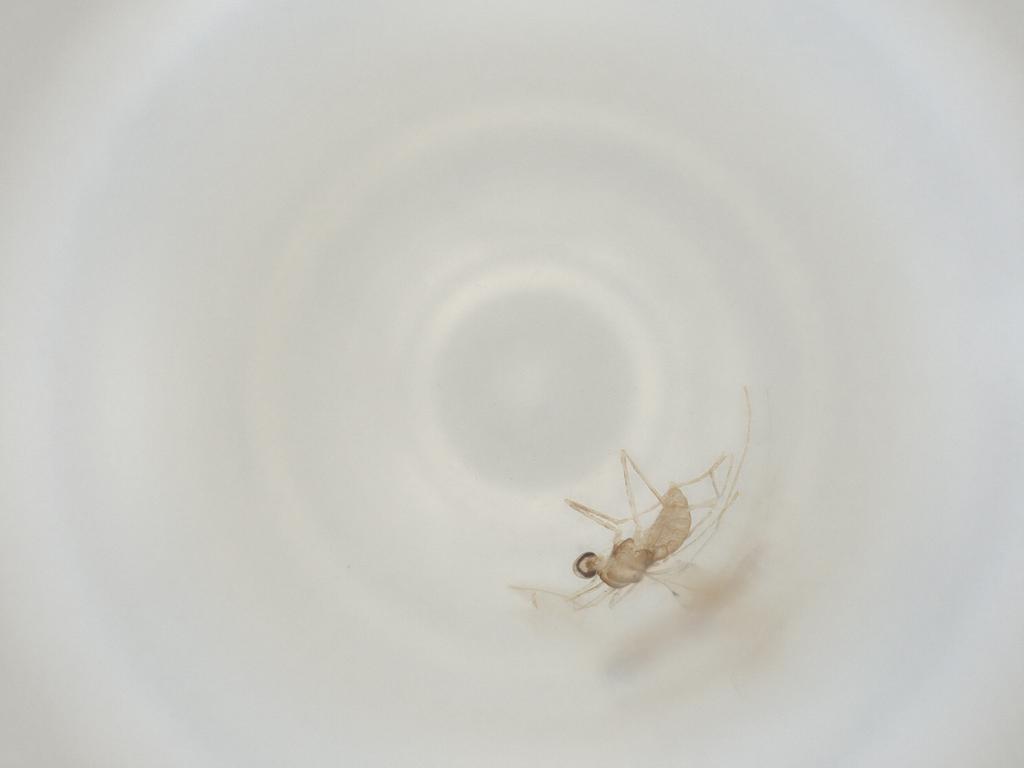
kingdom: Animalia
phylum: Arthropoda
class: Insecta
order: Diptera
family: Cecidomyiidae
